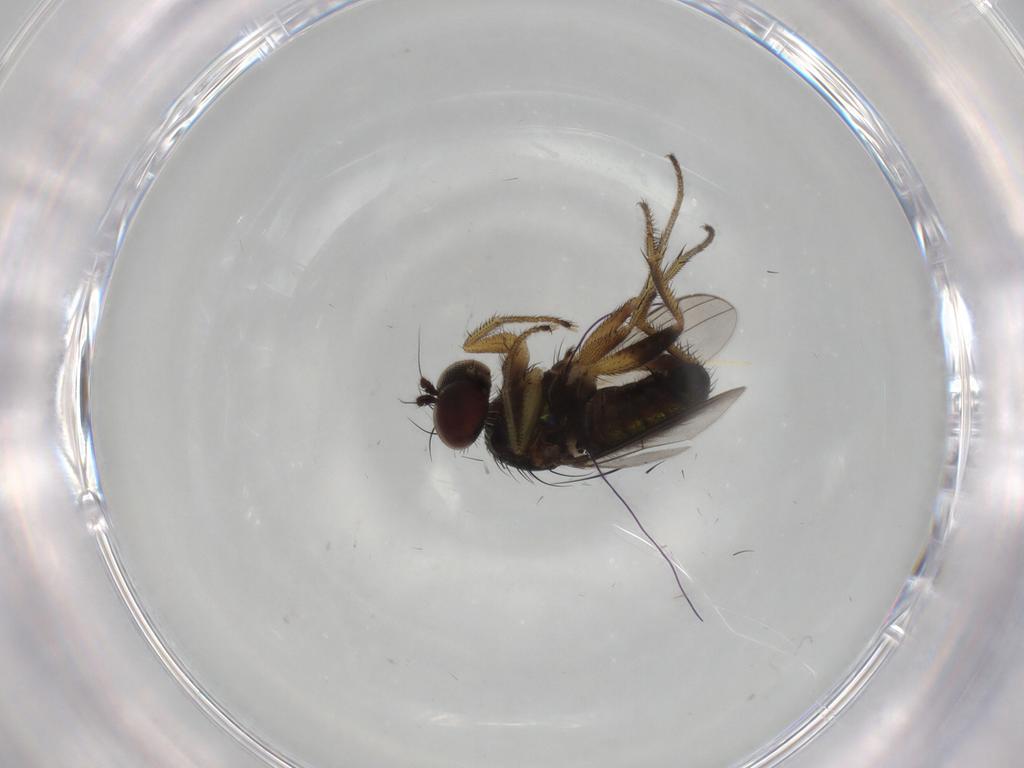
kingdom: Animalia
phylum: Arthropoda
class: Insecta
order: Diptera
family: Dolichopodidae
